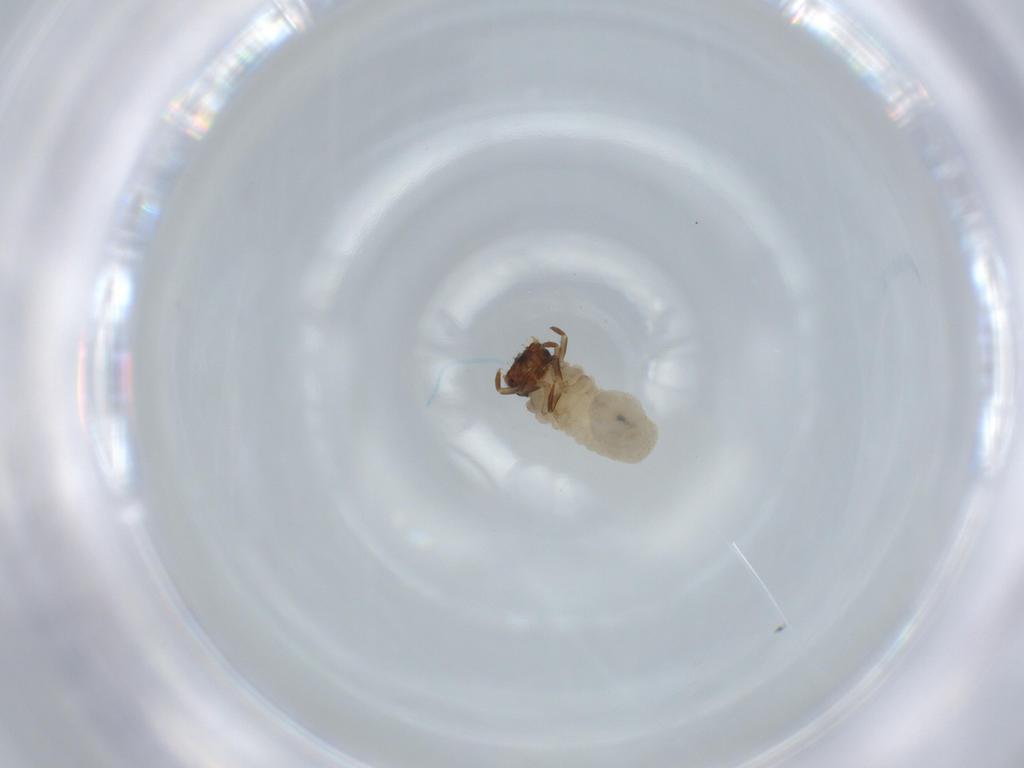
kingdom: Animalia
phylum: Arthropoda
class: Insecta
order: Coleoptera
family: Chrysomelidae
